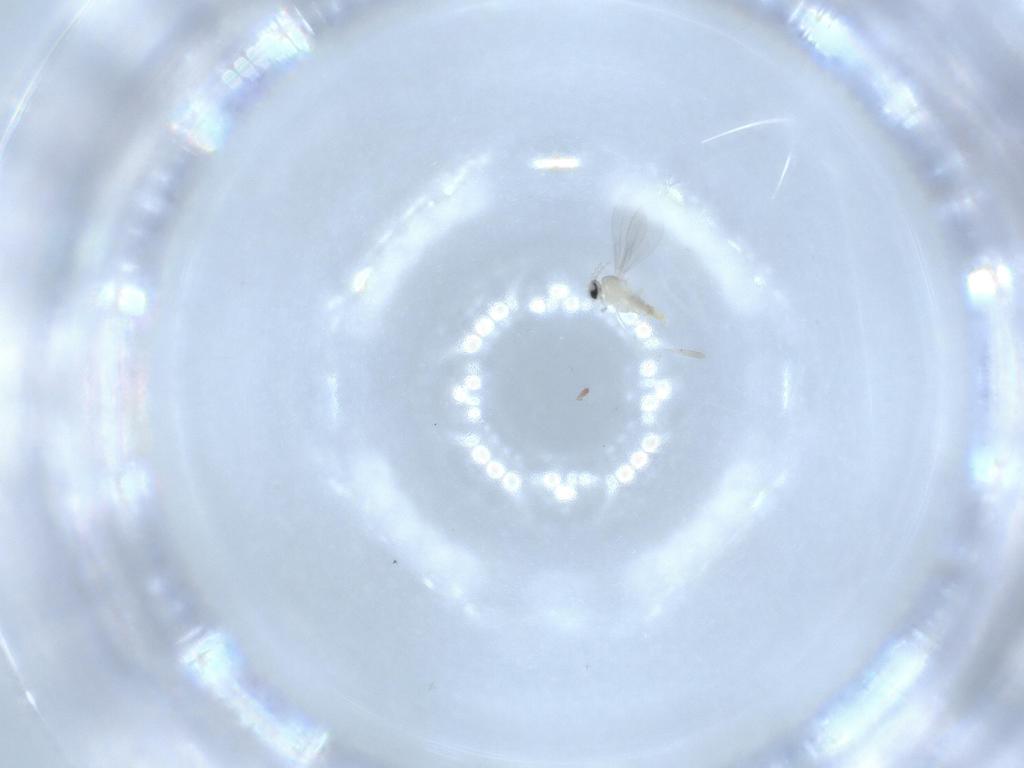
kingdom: Animalia
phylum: Arthropoda
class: Insecta
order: Diptera
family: Cecidomyiidae
